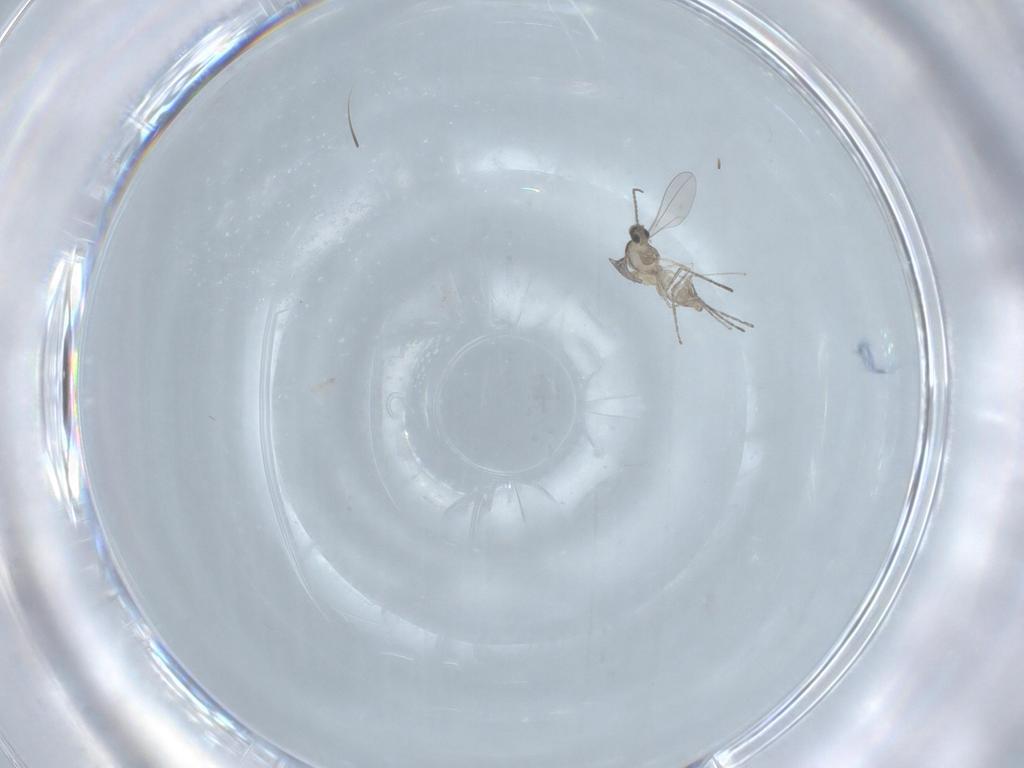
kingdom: Animalia
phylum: Arthropoda
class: Insecta
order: Diptera
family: Cecidomyiidae
